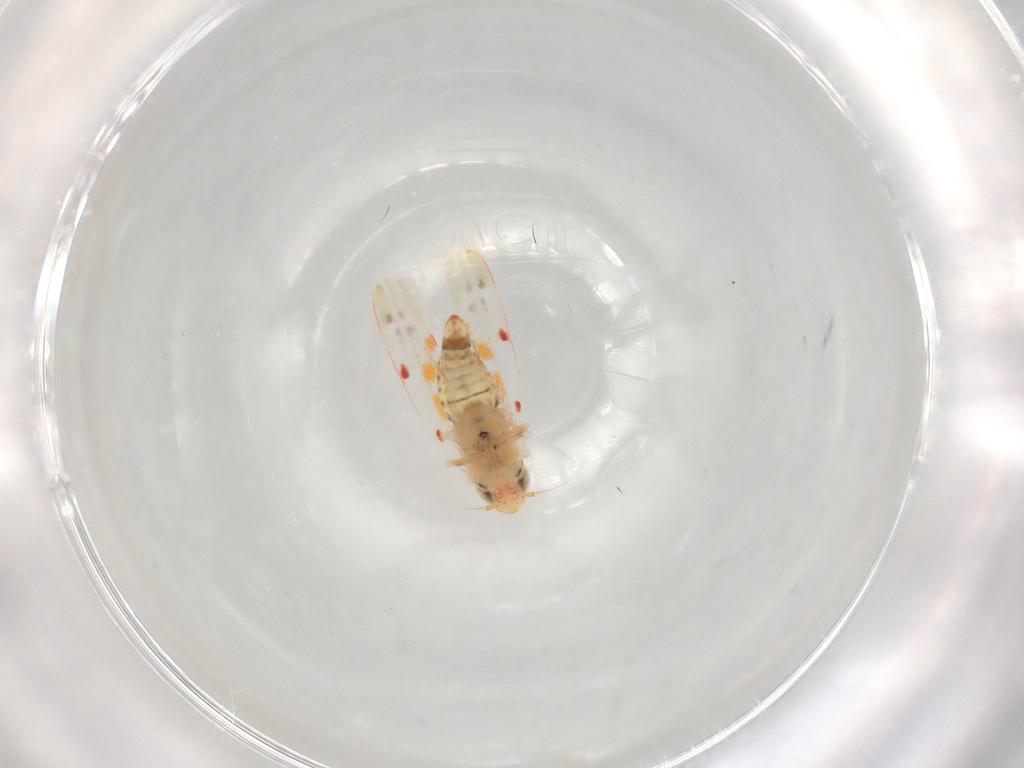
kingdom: Animalia
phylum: Arthropoda
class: Insecta
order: Hemiptera
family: Cicadellidae
